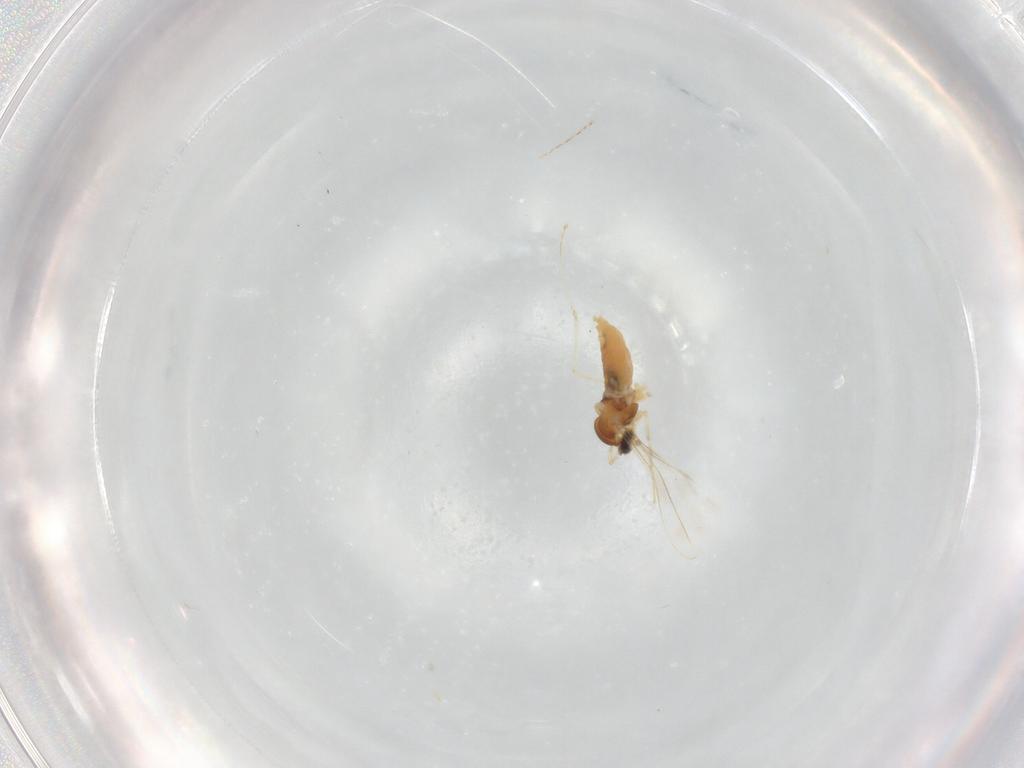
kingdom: Animalia
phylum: Arthropoda
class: Insecta
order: Diptera
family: Cecidomyiidae
